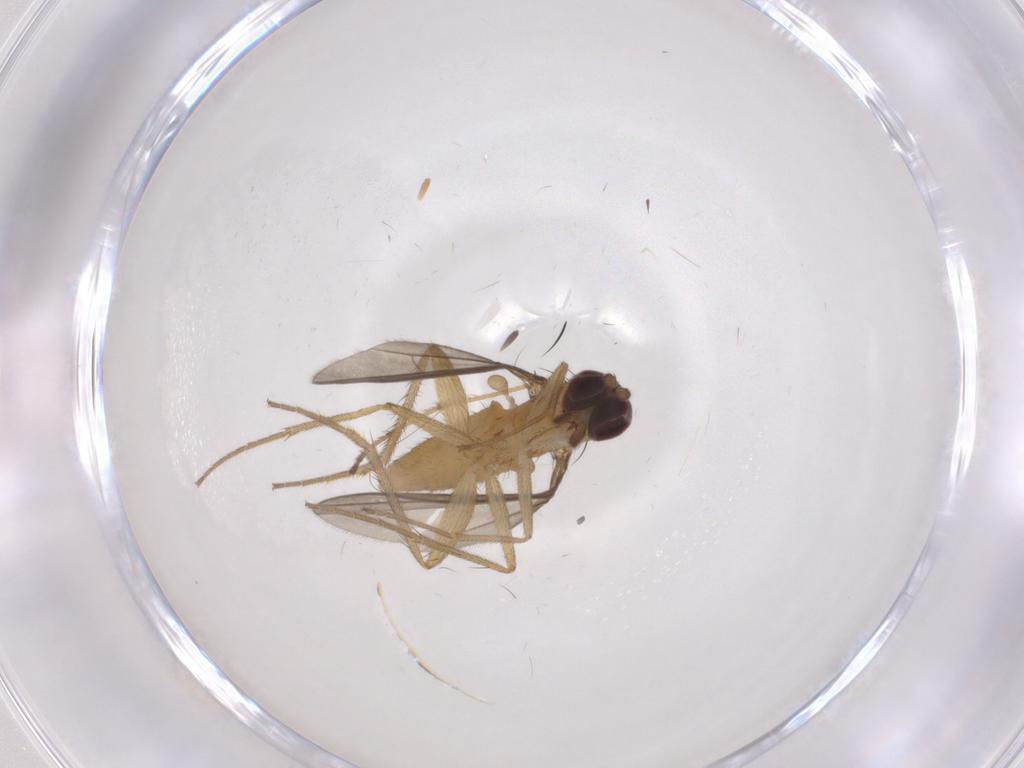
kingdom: Animalia
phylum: Arthropoda
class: Insecta
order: Diptera
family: Dolichopodidae
